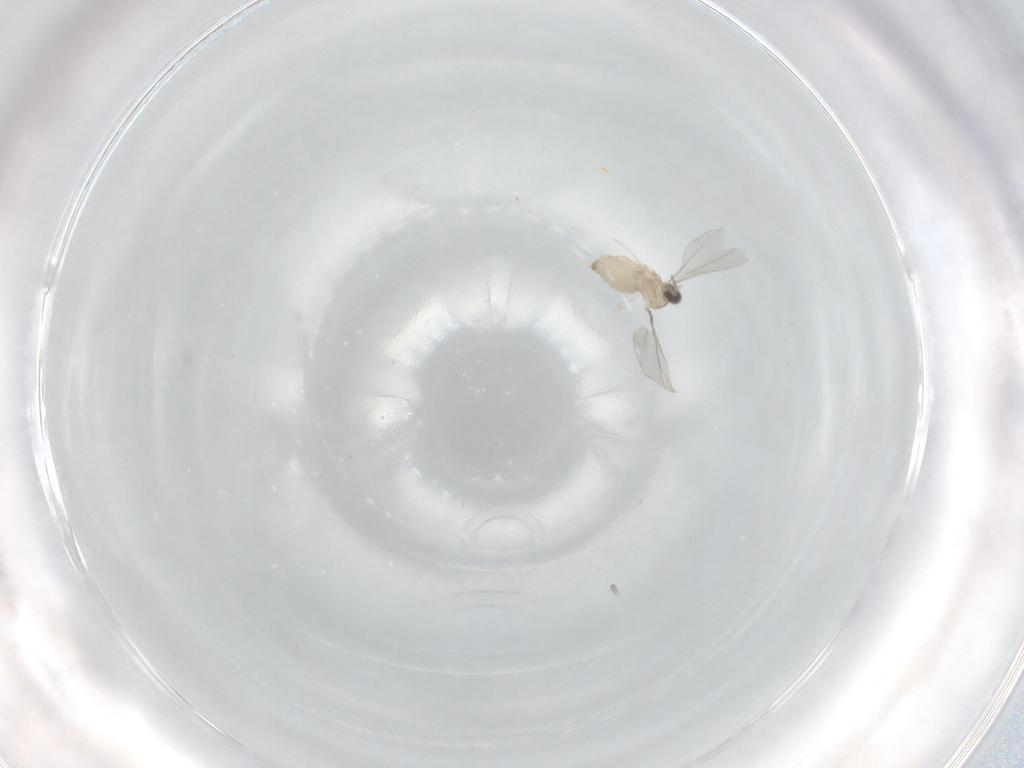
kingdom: Animalia
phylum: Arthropoda
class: Insecta
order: Diptera
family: Cecidomyiidae
